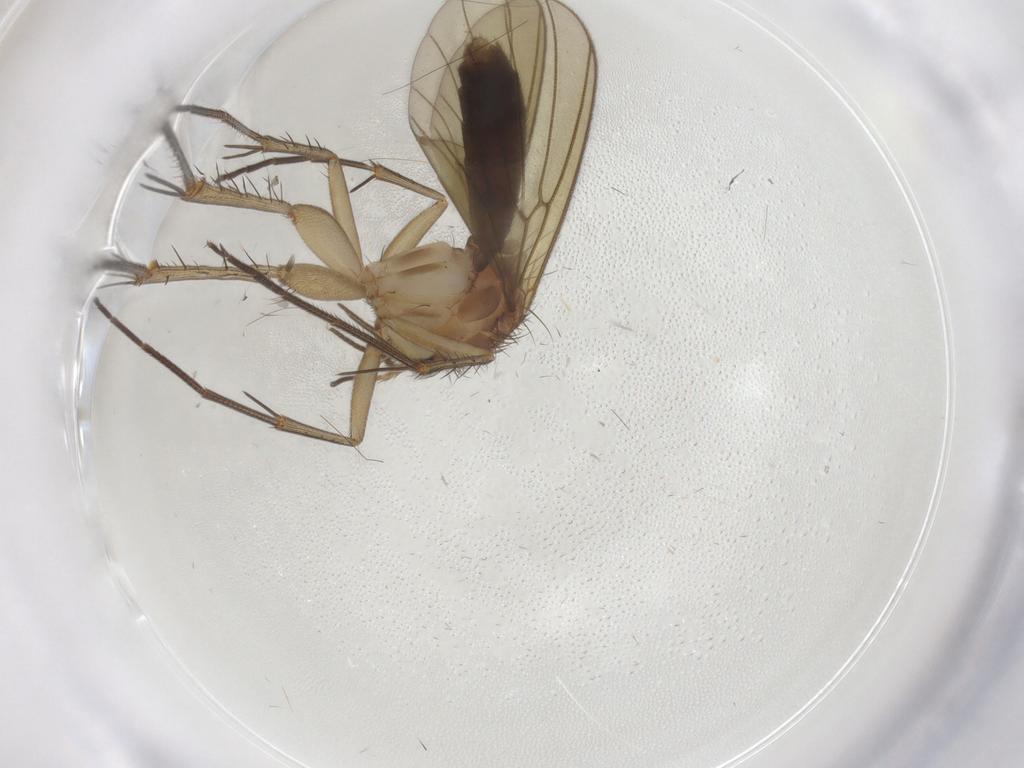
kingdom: Animalia
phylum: Arthropoda
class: Insecta
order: Diptera
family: Mycetophilidae
